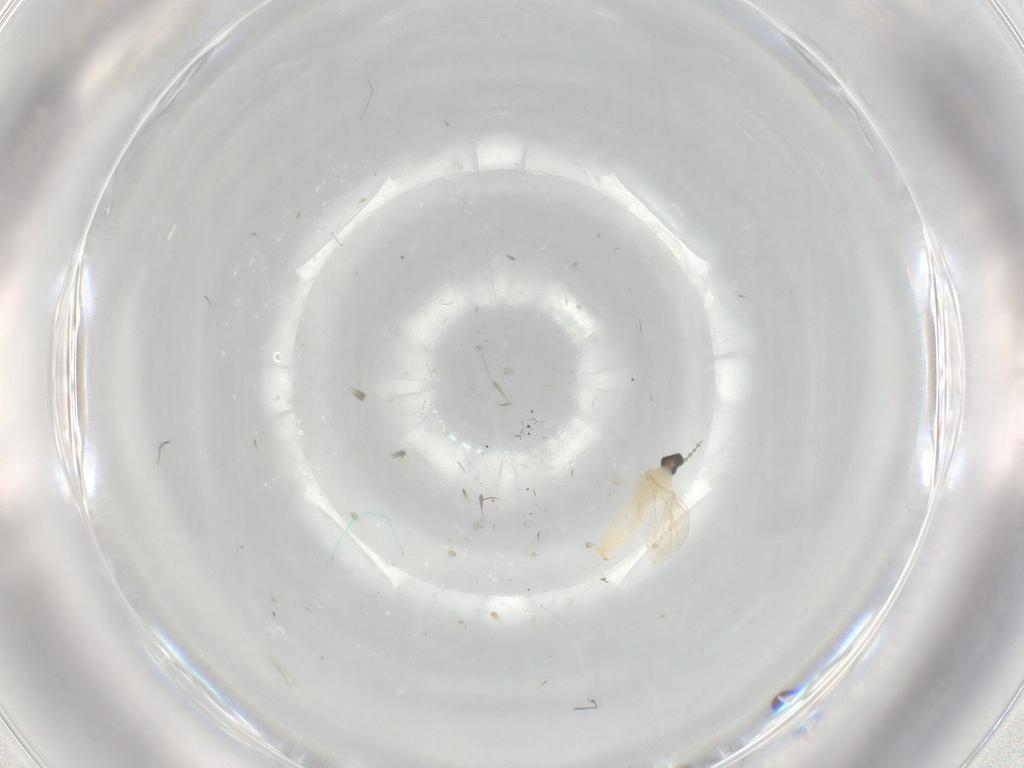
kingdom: Animalia
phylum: Arthropoda
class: Insecta
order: Diptera
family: Cecidomyiidae
